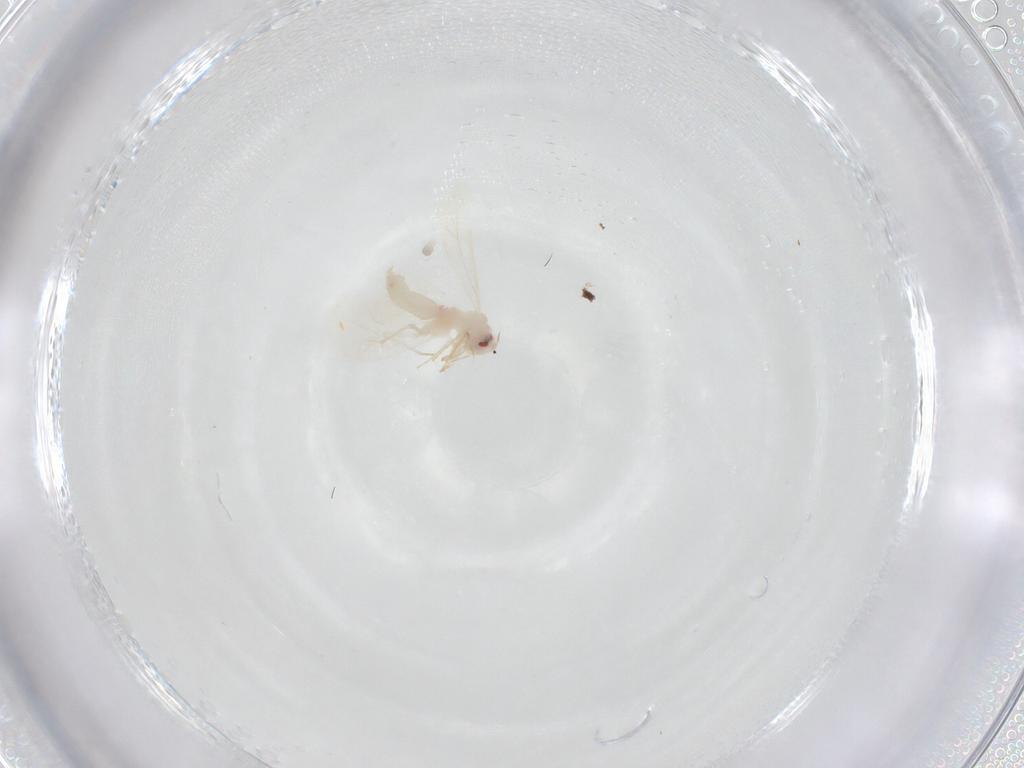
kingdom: Animalia
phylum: Arthropoda
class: Insecta
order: Hemiptera
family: Aleyrodidae
